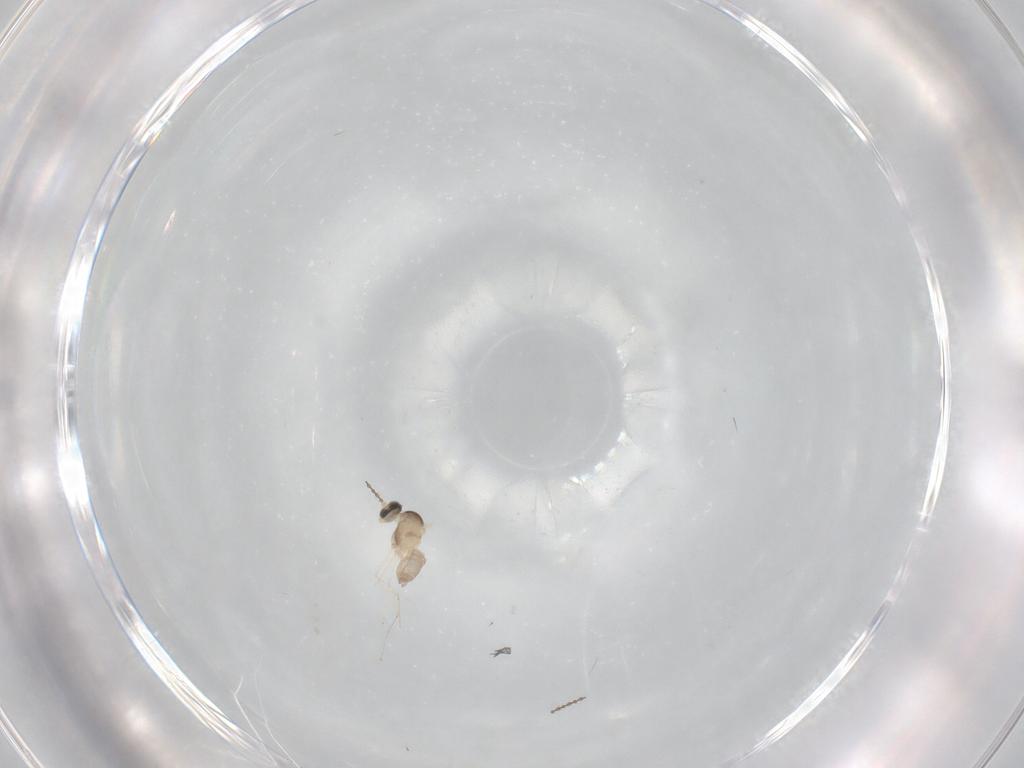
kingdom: Animalia
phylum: Arthropoda
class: Insecta
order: Diptera
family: Cecidomyiidae
